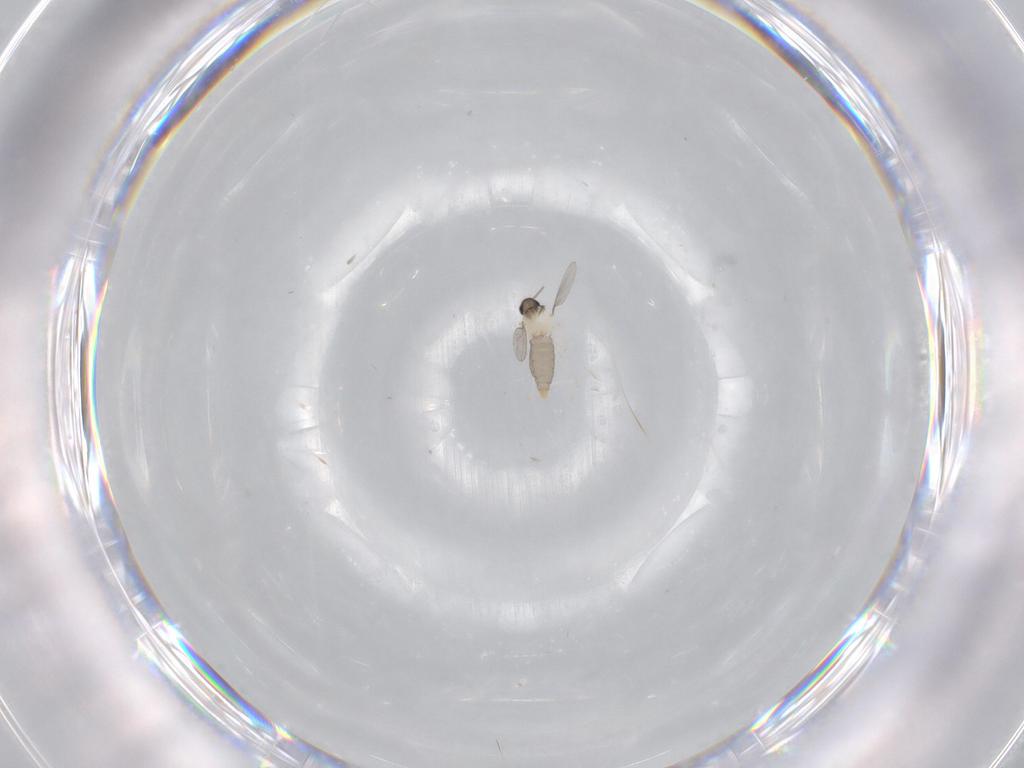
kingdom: Animalia
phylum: Arthropoda
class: Insecta
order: Diptera
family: Cecidomyiidae
